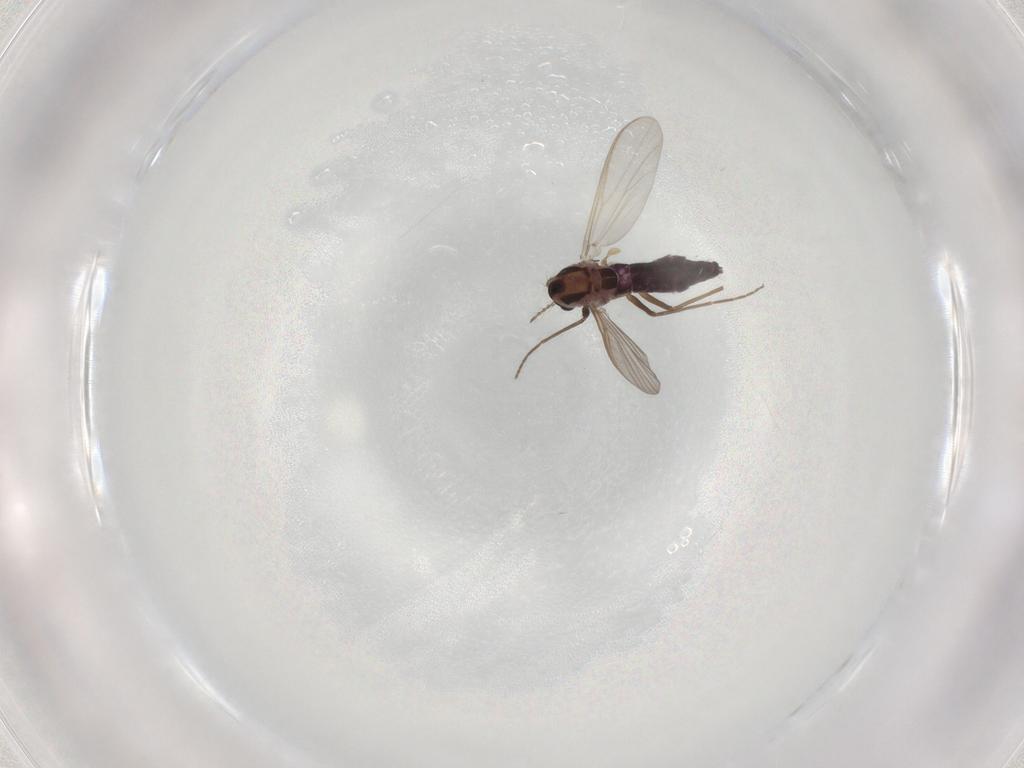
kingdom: Animalia
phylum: Arthropoda
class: Insecta
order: Diptera
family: Chironomidae
